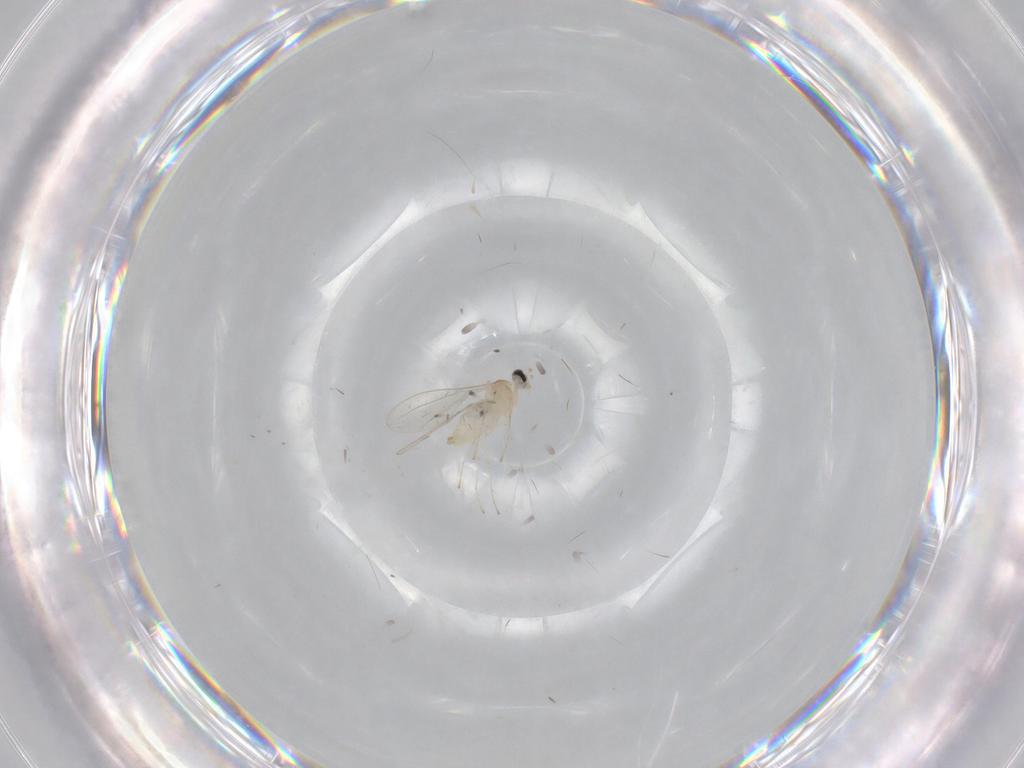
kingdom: Animalia
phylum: Arthropoda
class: Insecta
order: Diptera
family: Cecidomyiidae
